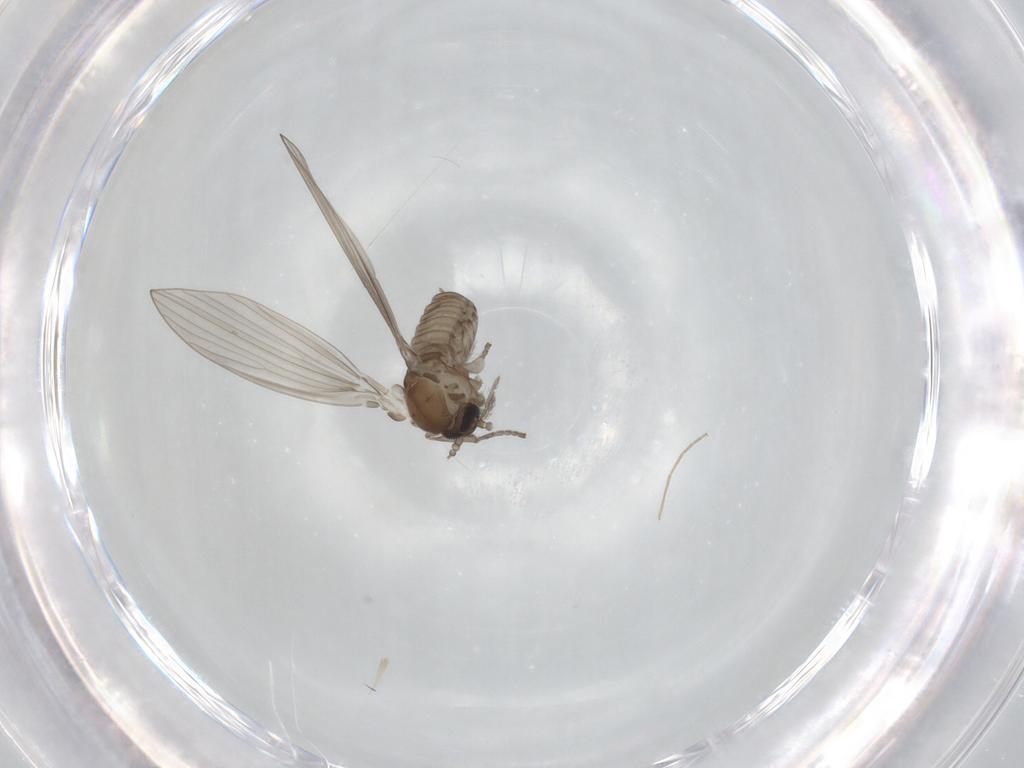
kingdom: Animalia
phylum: Arthropoda
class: Insecta
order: Diptera
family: Chironomidae
